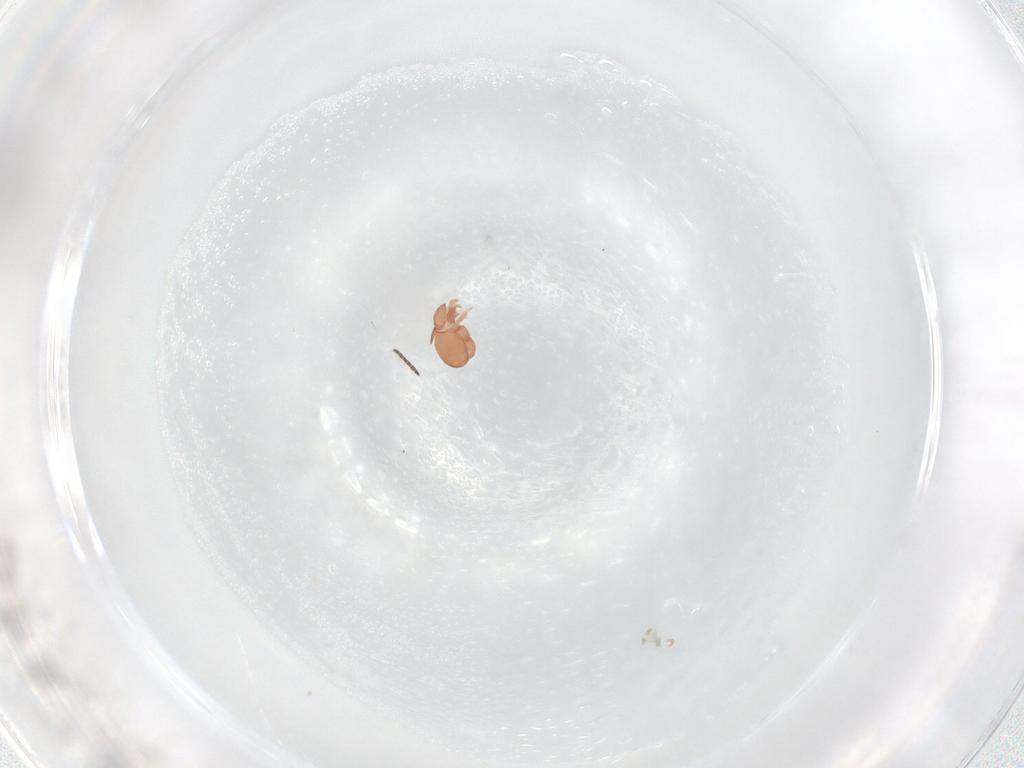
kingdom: Animalia
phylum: Arthropoda
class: Arachnida
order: Sarcoptiformes
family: Phthiracaridae
